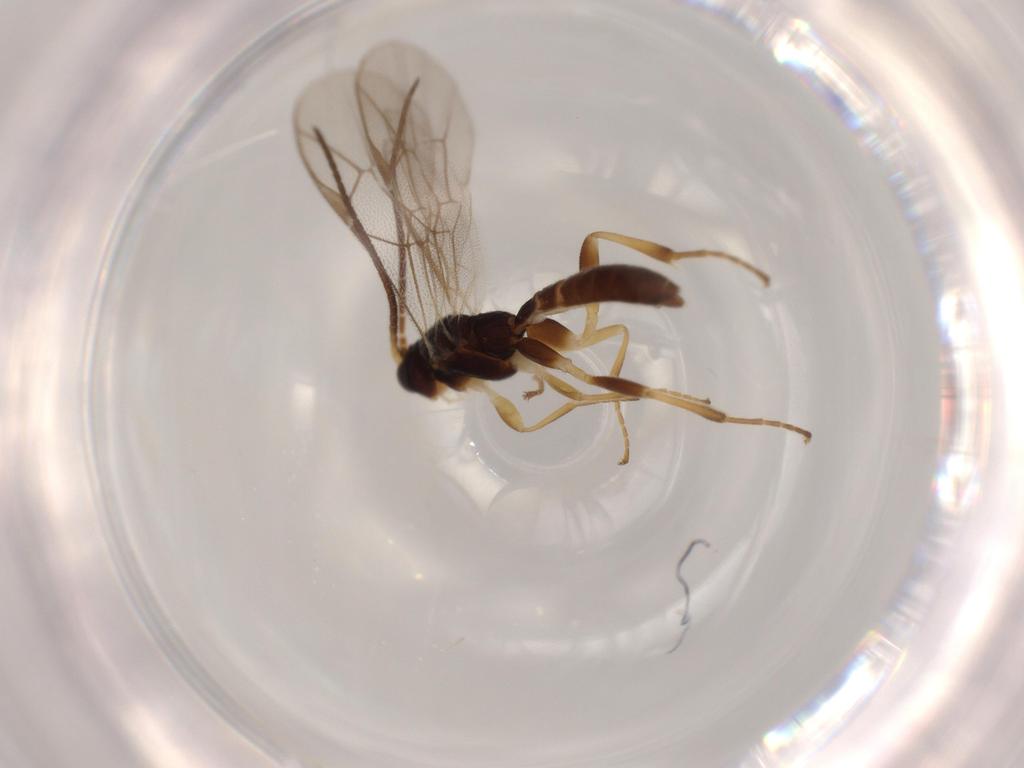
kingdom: Animalia
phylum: Arthropoda
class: Insecta
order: Hymenoptera
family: Ichneumonidae
